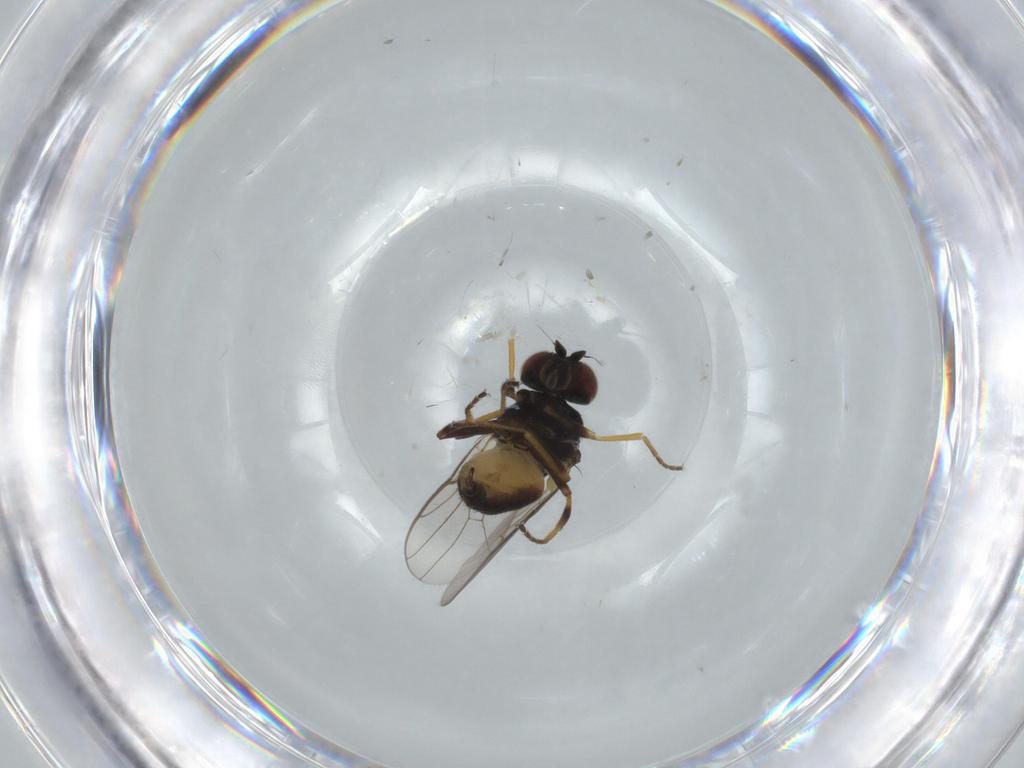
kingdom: Animalia
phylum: Arthropoda
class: Insecta
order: Diptera
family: Chloropidae
